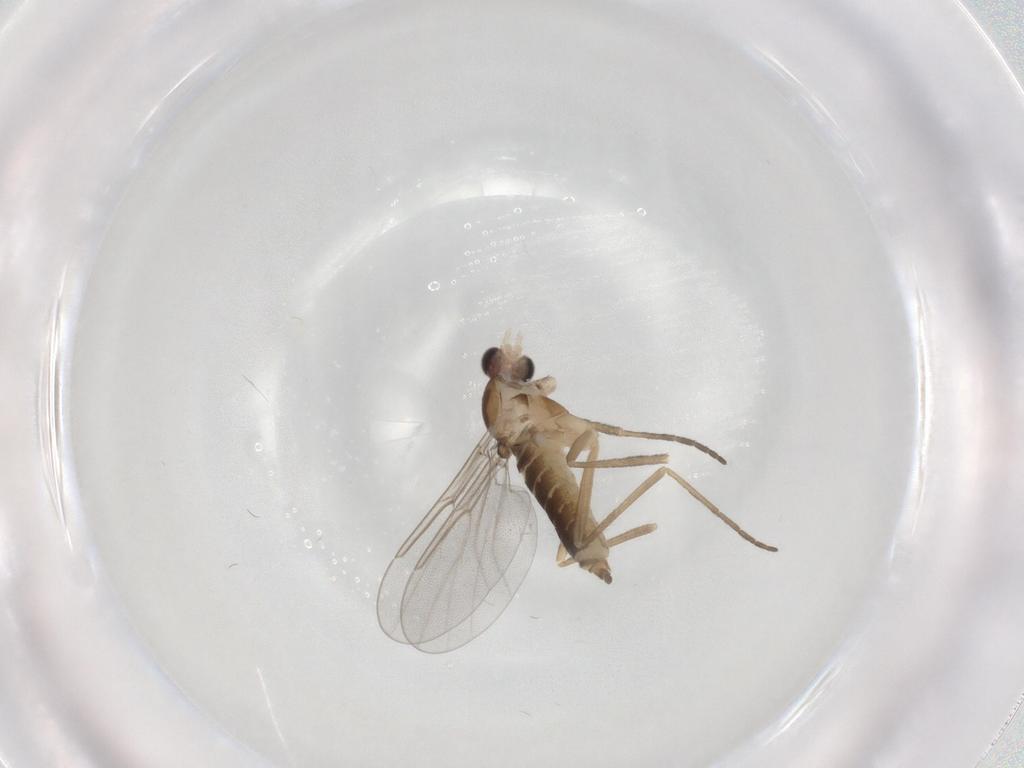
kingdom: Animalia
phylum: Arthropoda
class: Insecta
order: Diptera
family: Cecidomyiidae
